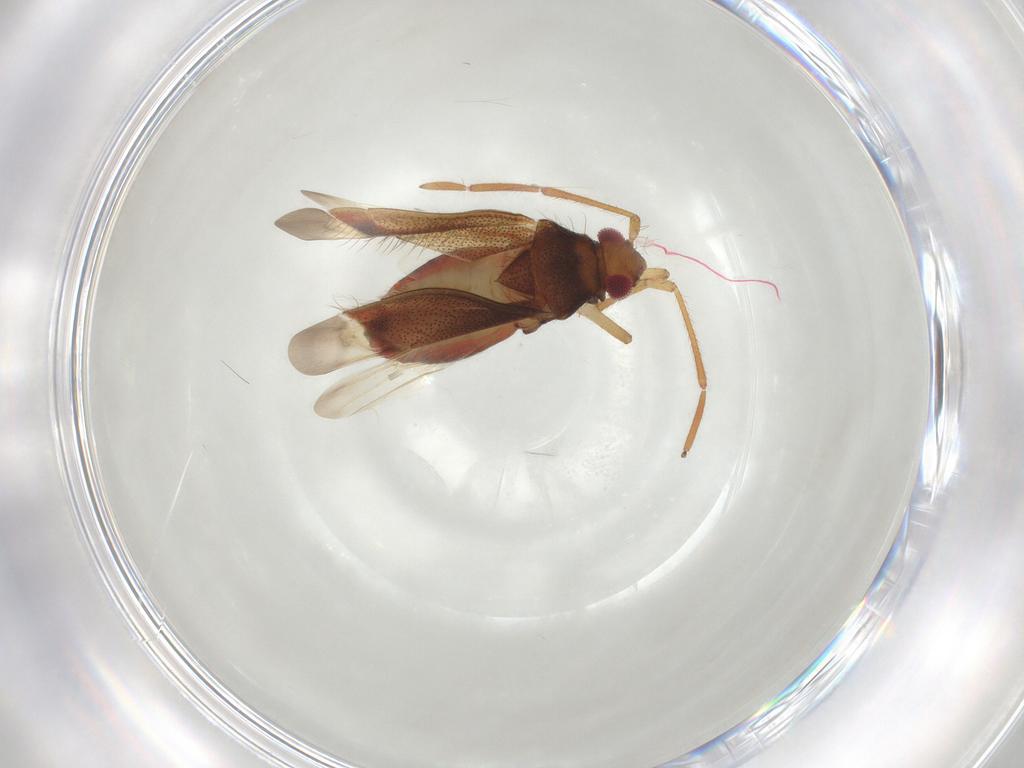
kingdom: Animalia
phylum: Arthropoda
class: Insecta
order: Hemiptera
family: Miridae
